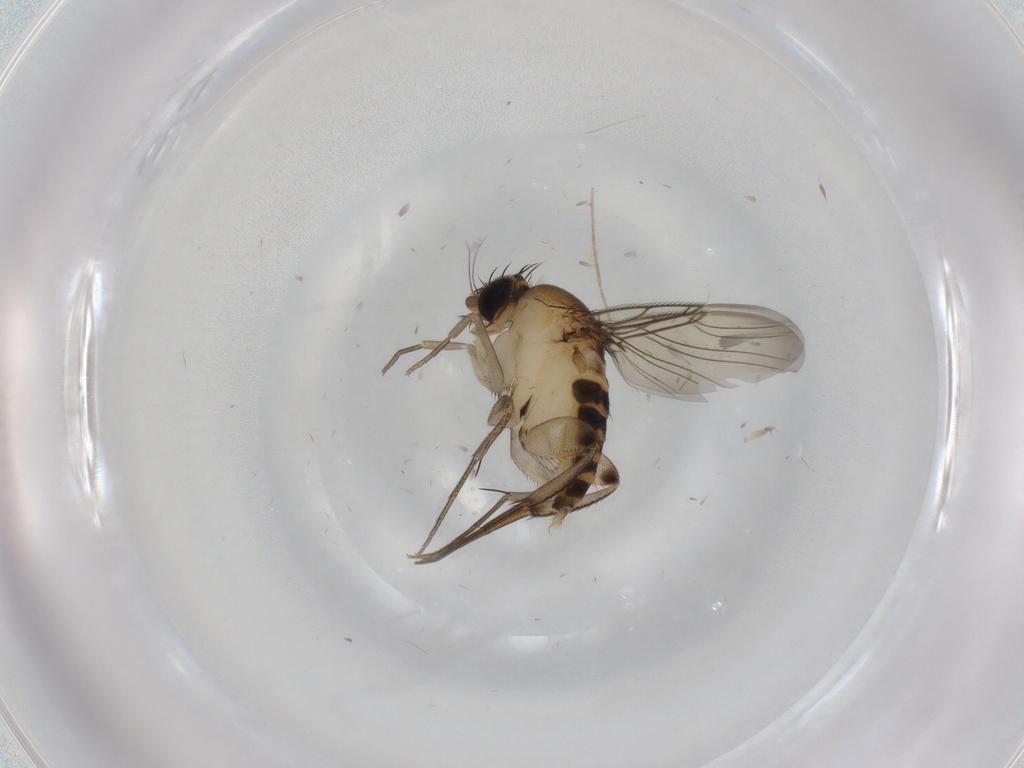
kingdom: Animalia
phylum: Arthropoda
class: Insecta
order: Diptera
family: Phoridae
